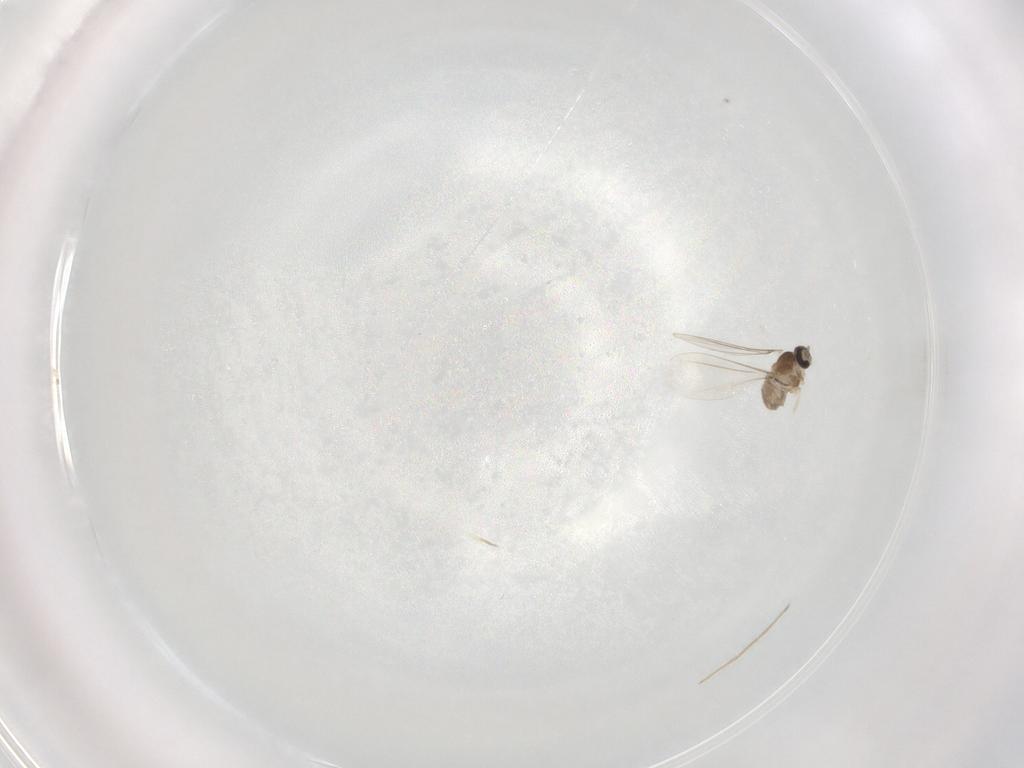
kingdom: Animalia
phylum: Arthropoda
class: Insecta
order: Diptera
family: Chironomidae
